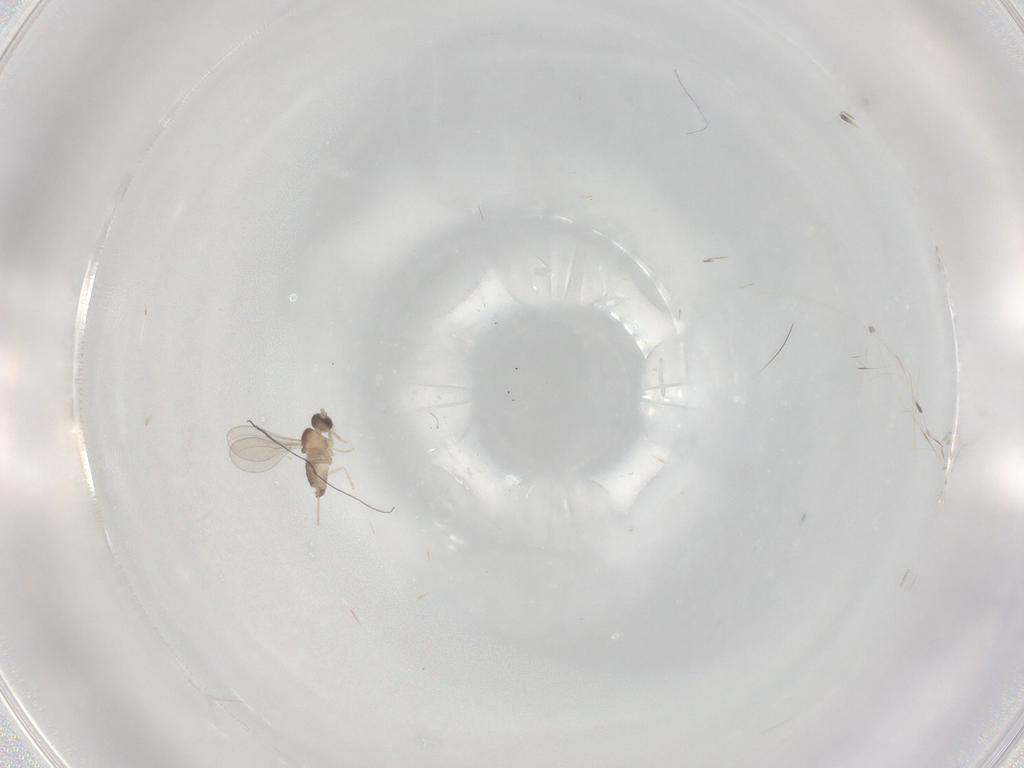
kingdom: Animalia
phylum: Arthropoda
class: Insecta
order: Diptera
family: Cecidomyiidae
